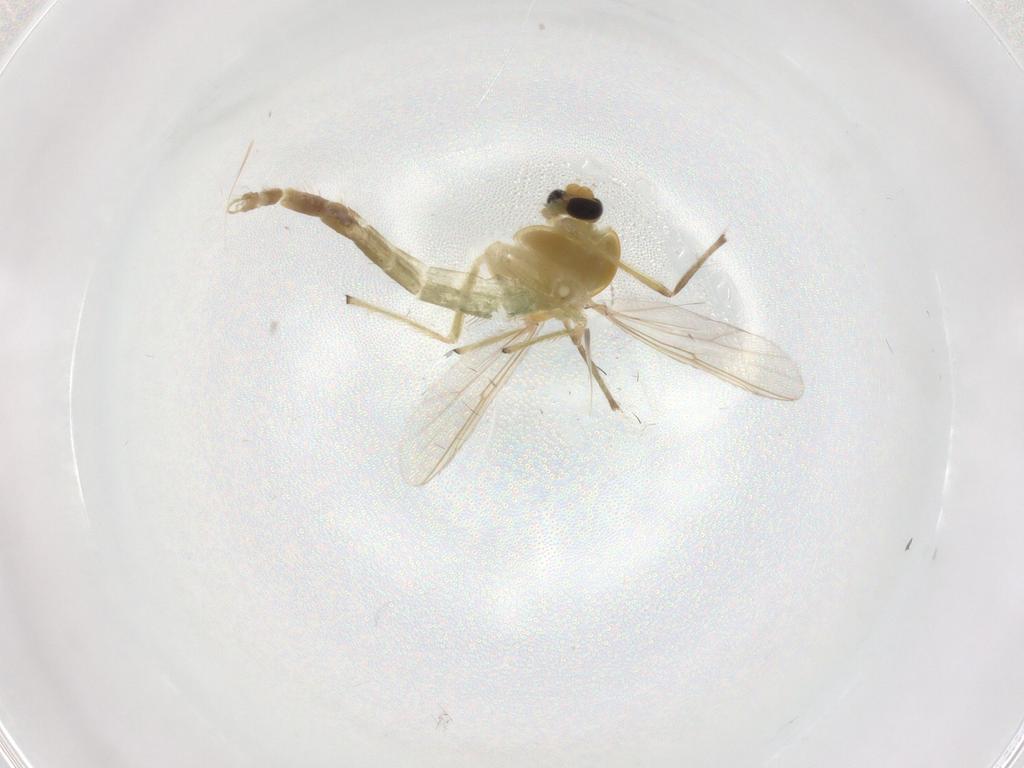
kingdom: Animalia
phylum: Arthropoda
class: Insecta
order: Diptera
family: Chironomidae
